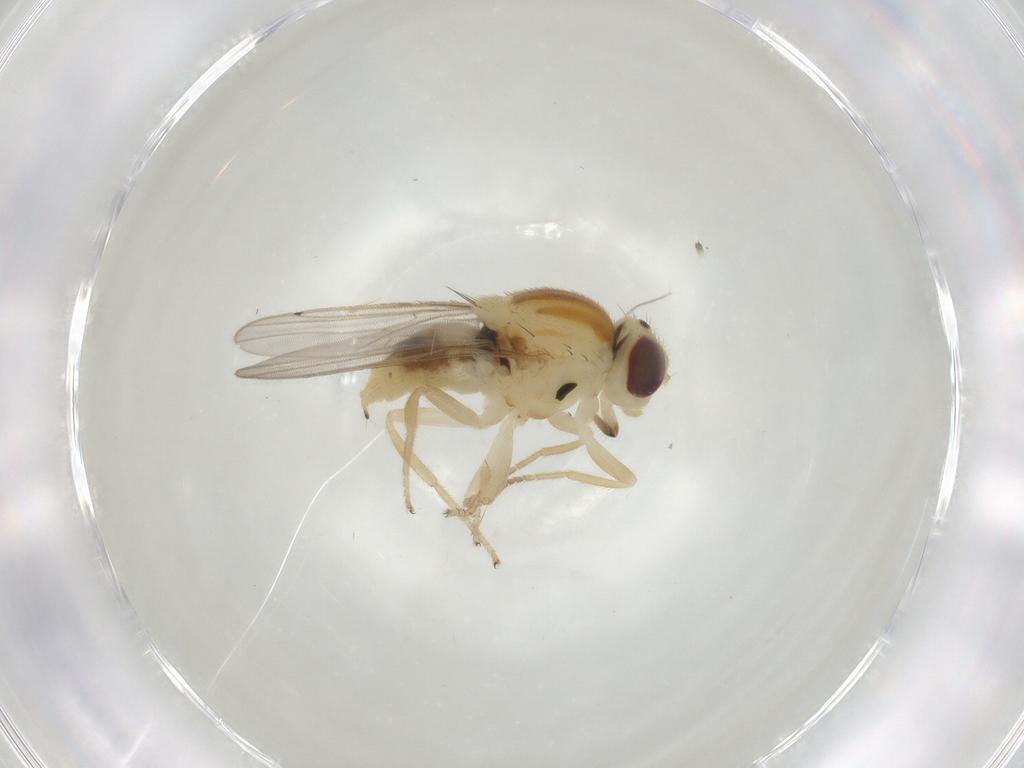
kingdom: Animalia
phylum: Arthropoda
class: Insecta
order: Diptera
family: Chloropidae
